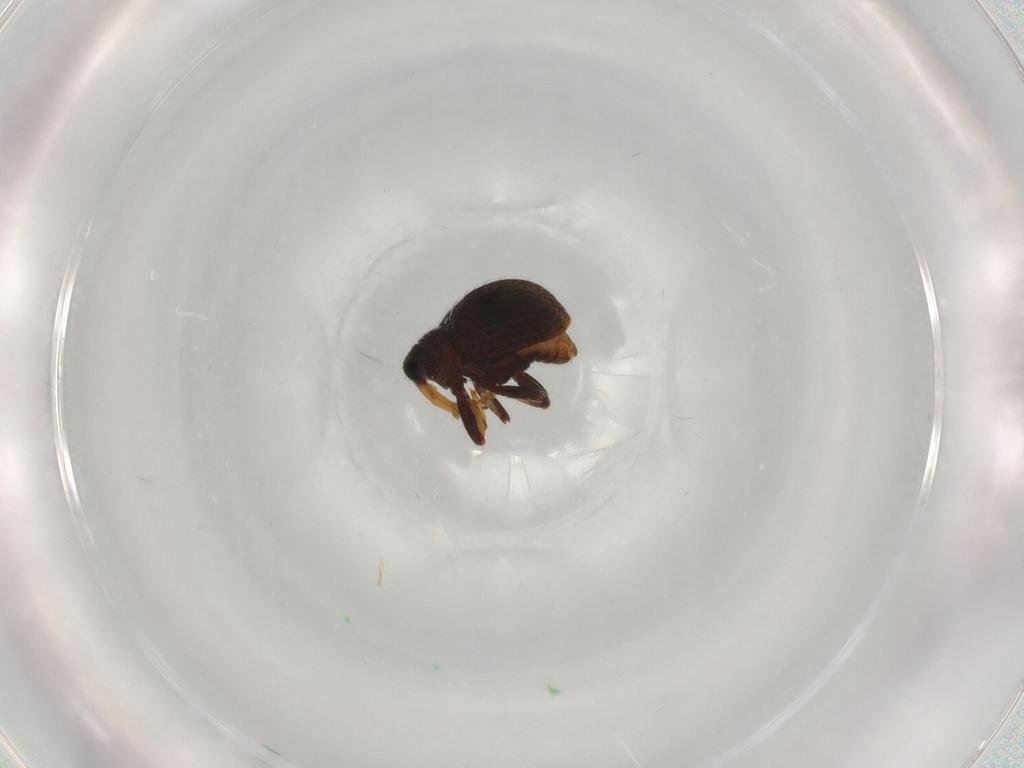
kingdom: Animalia
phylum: Arthropoda
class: Insecta
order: Coleoptera
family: Curculionidae
